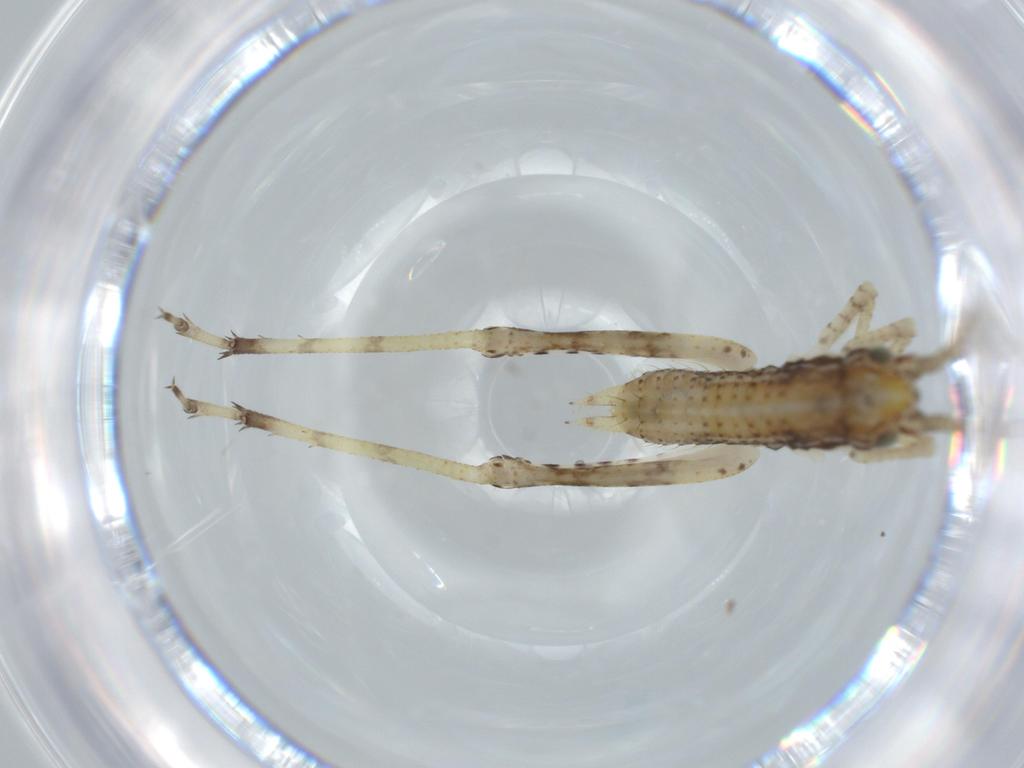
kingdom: Animalia
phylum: Arthropoda
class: Insecta
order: Orthoptera
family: Gryllidae
